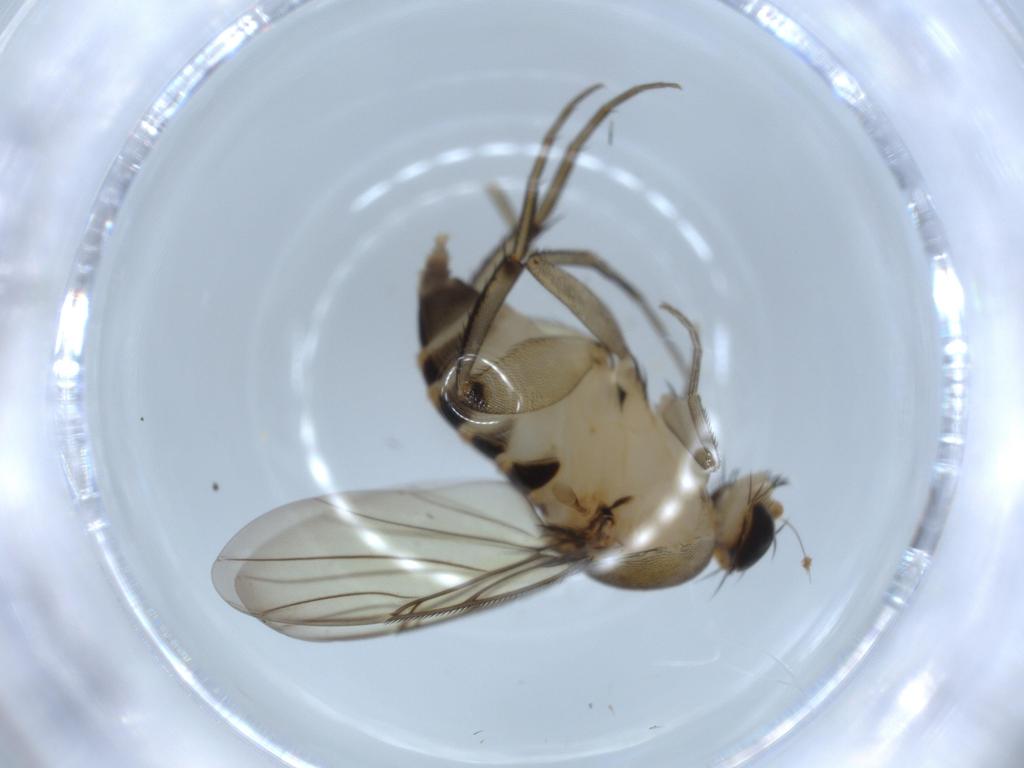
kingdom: Animalia
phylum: Arthropoda
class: Insecta
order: Diptera
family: Phoridae
